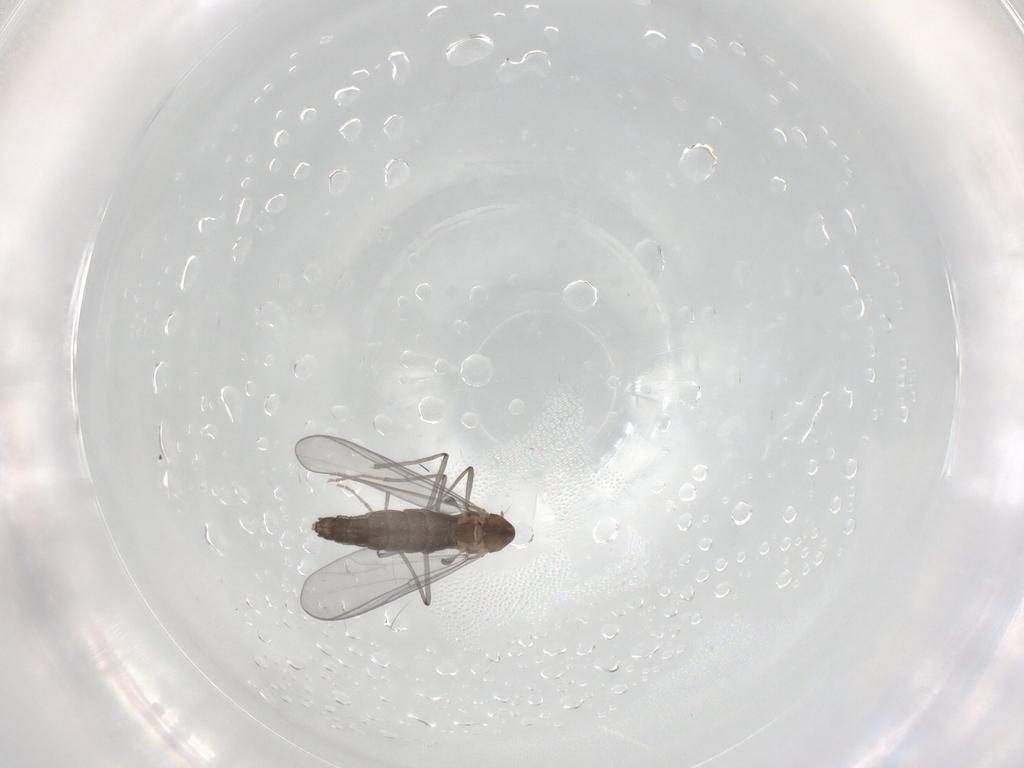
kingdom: Animalia
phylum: Arthropoda
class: Insecta
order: Diptera
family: Chironomidae
